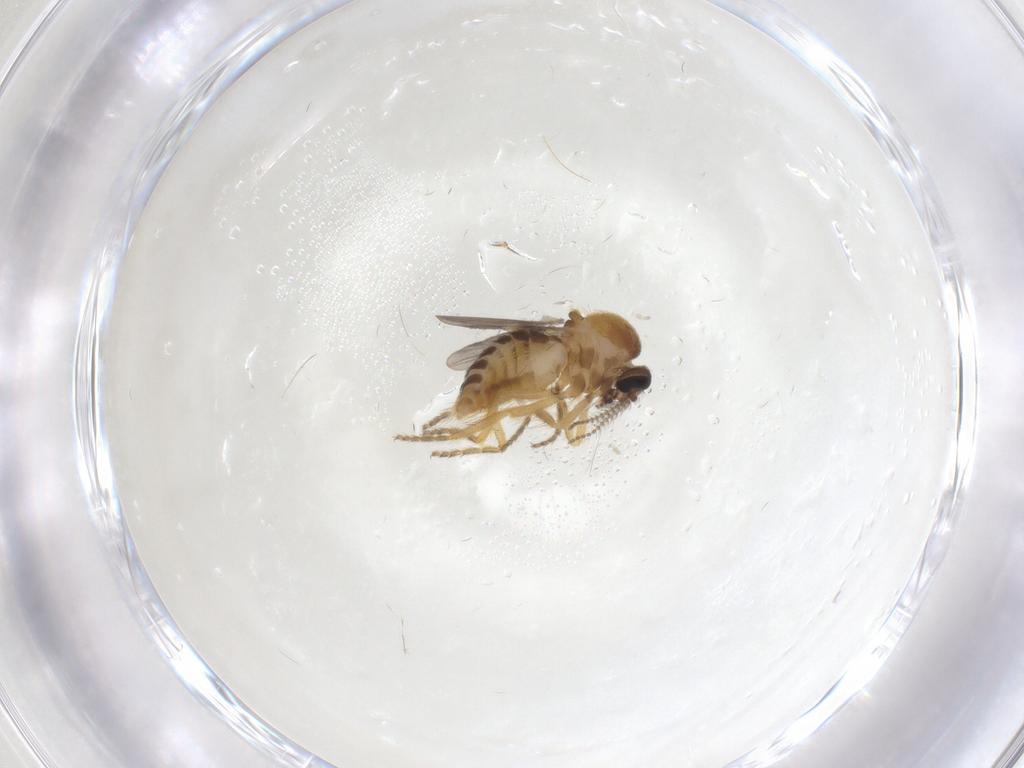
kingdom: Animalia
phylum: Arthropoda
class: Insecta
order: Diptera
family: Ceratopogonidae
